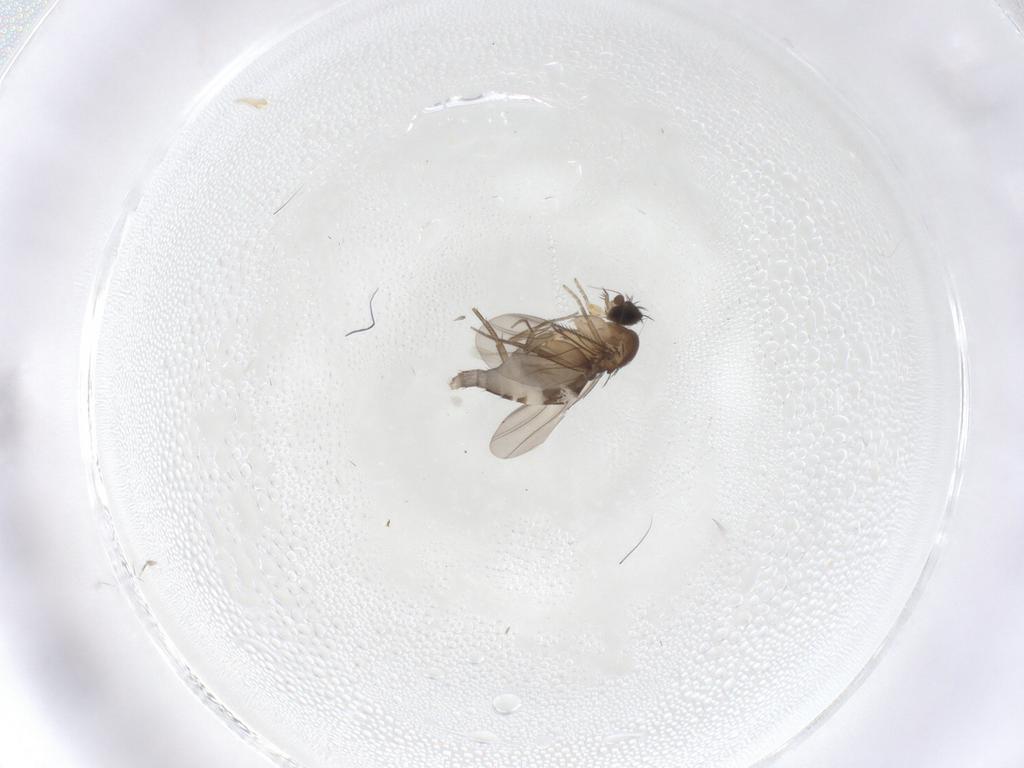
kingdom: Animalia
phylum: Arthropoda
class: Insecta
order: Diptera
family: Phoridae
